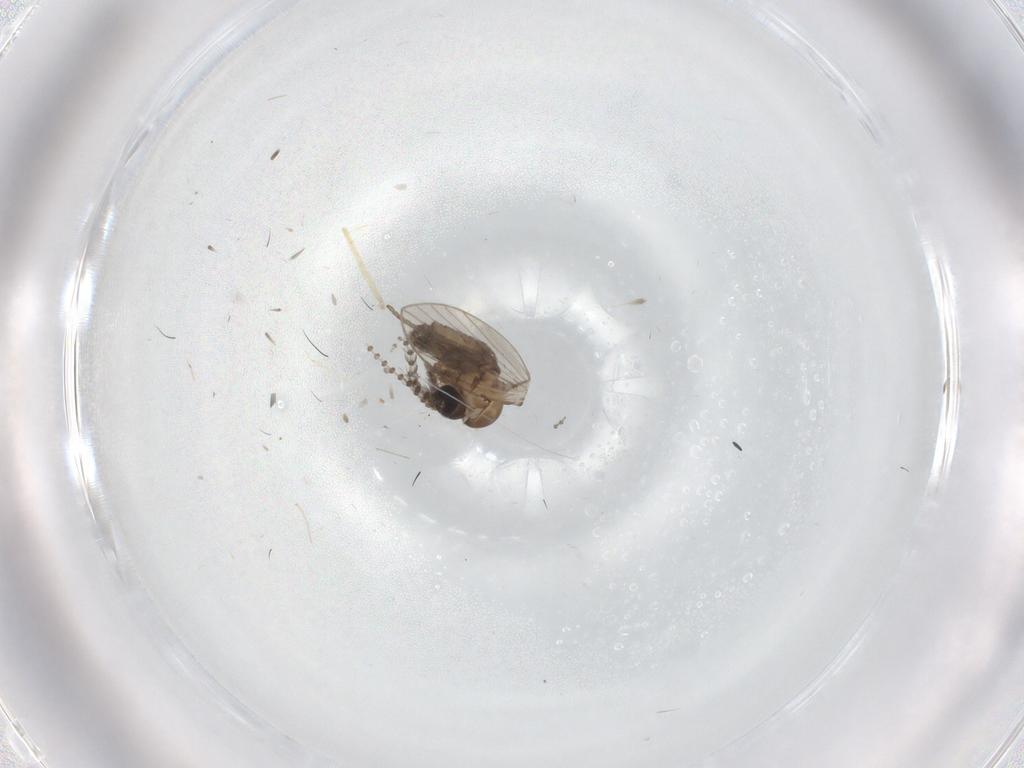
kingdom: Animalia
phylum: Arthropoda
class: Insecta
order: Diptera
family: Psychodidae
